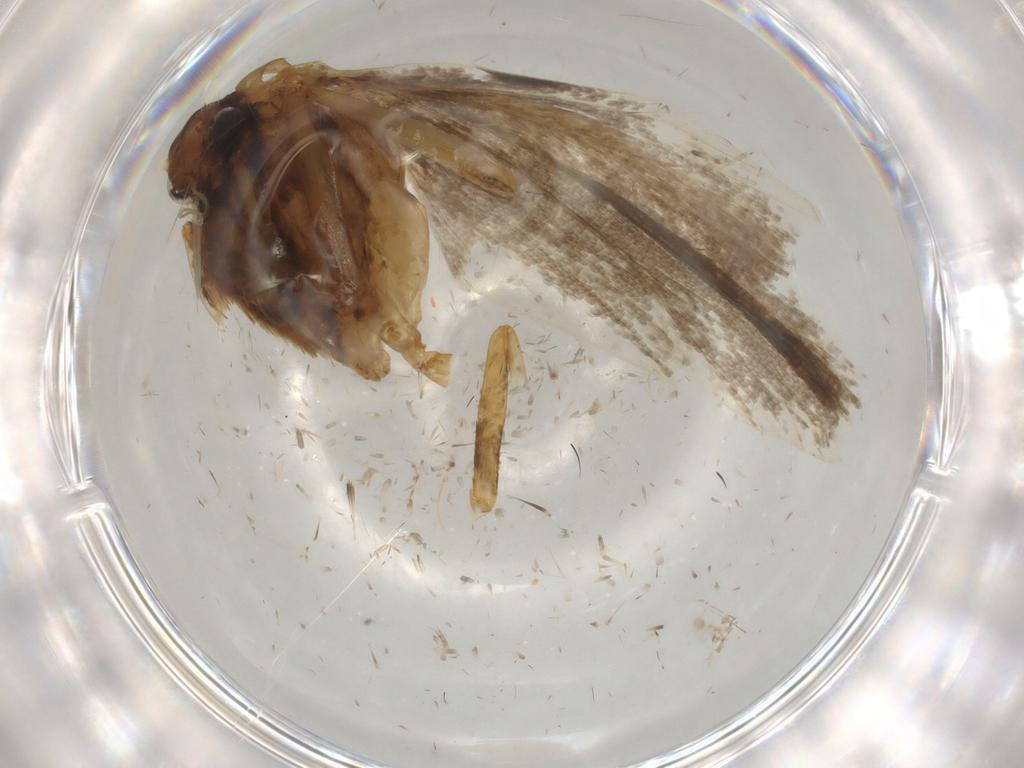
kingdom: Animalia
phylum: Arthropoda
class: Insecta
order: Lepidoptera
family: Lecithoceridae
